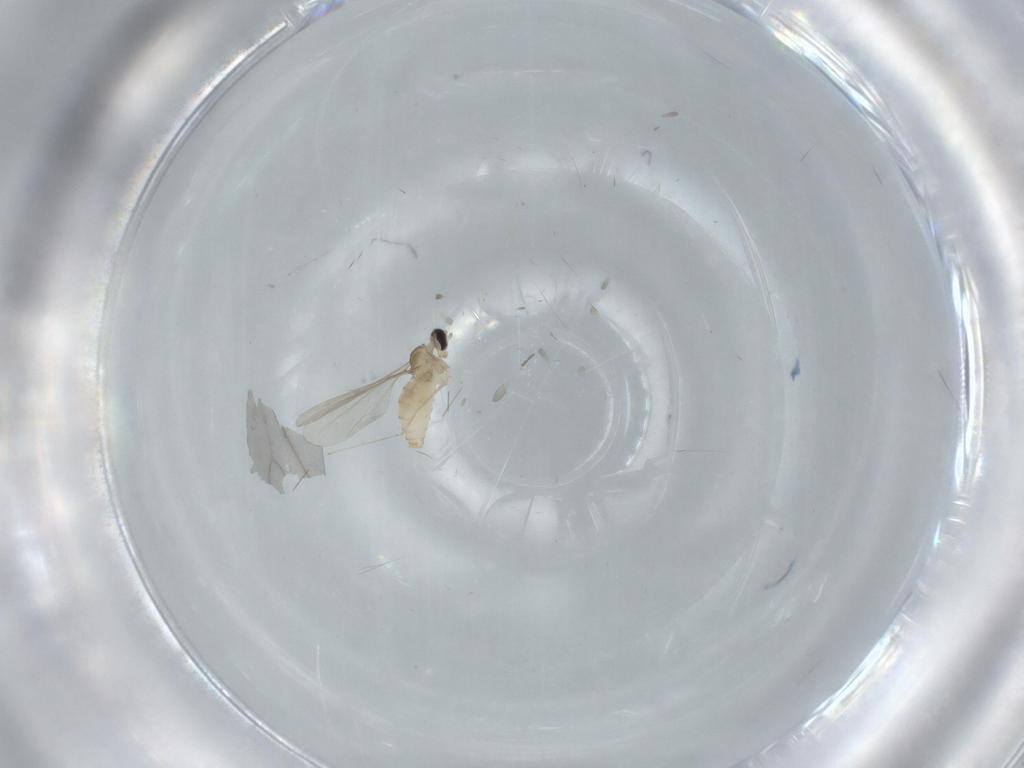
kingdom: Animalia
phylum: Arthropoda
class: Insecta
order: Diptera
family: Cecidomyiidae
